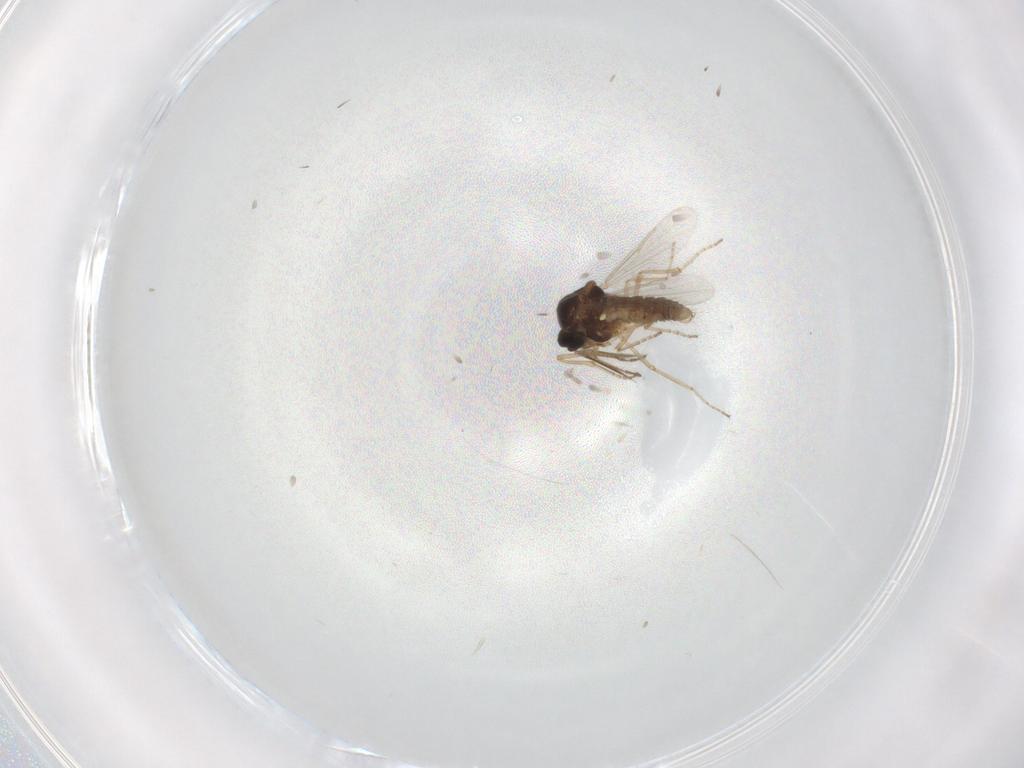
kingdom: Animalia
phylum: Arthropoda
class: Insecta
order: Diptera
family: Ceratopogonidae
